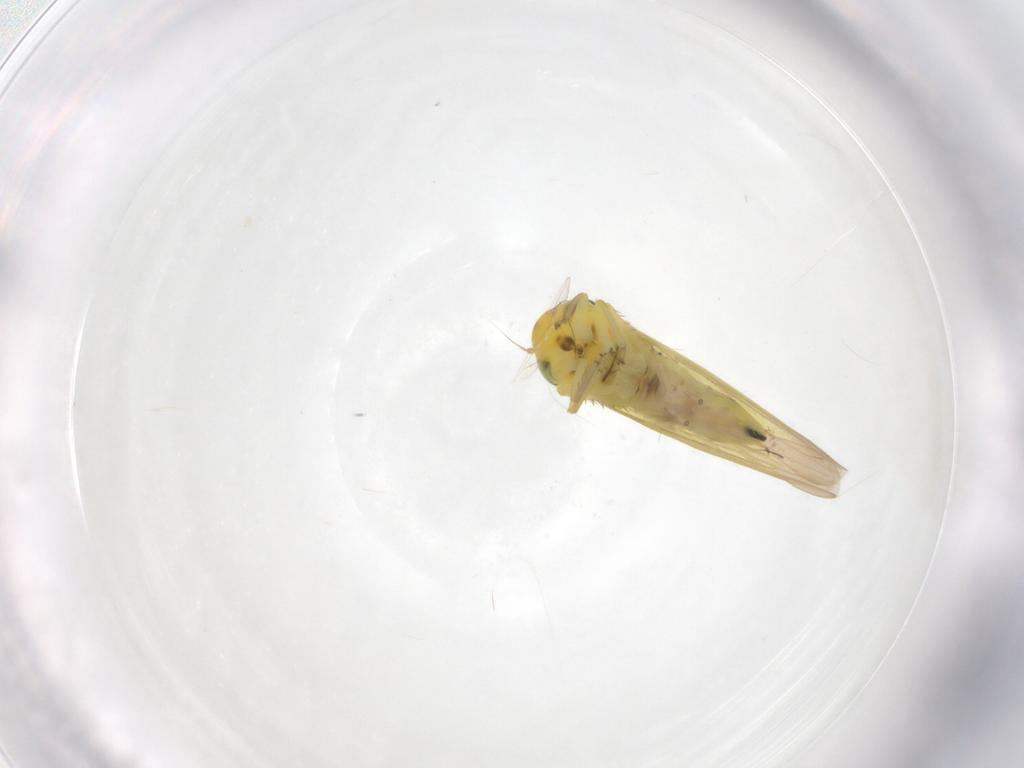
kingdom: Animalia
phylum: Arthropoda
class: Insecta
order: Hemiptera
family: Cicadellidae
